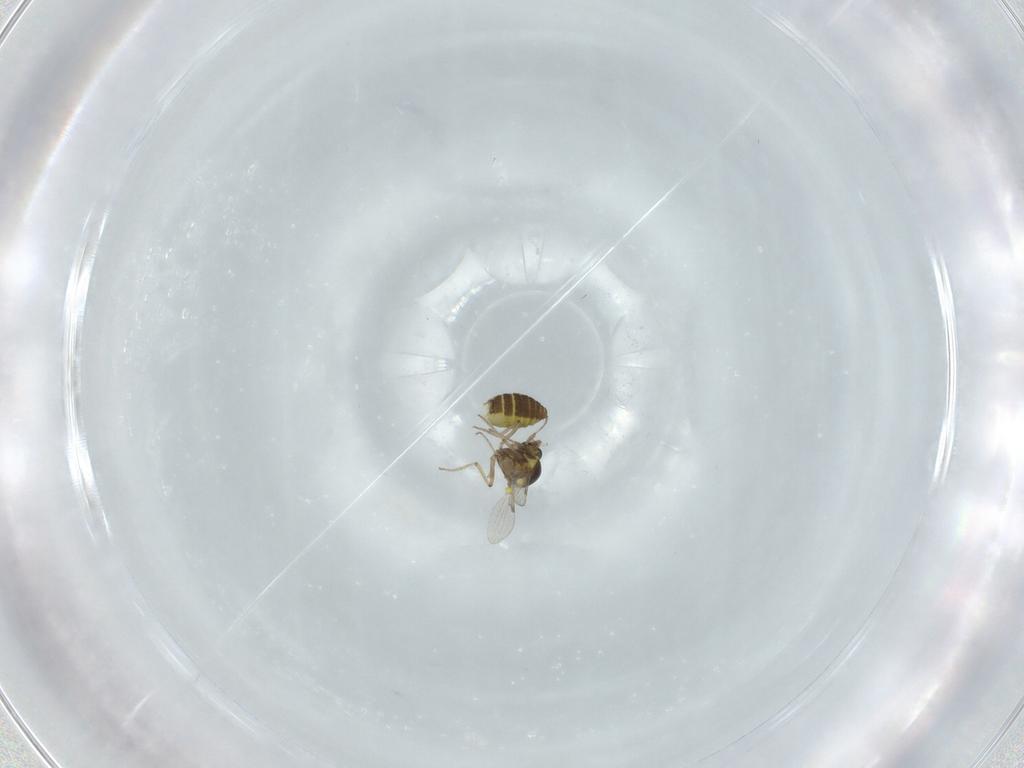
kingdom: Animalia
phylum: Arthropoda
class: Insecta
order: Diptera
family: Ceratopogonidae
